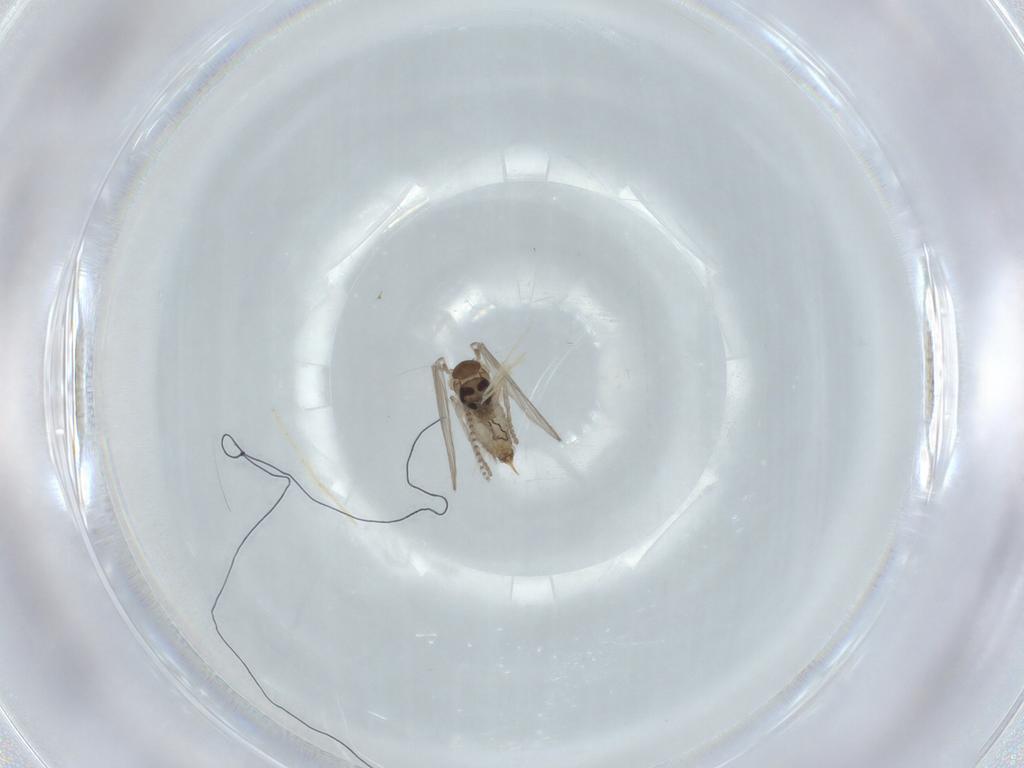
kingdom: Animalia
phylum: Arthropoda
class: Insecta
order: Diptera
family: Psychodidae
